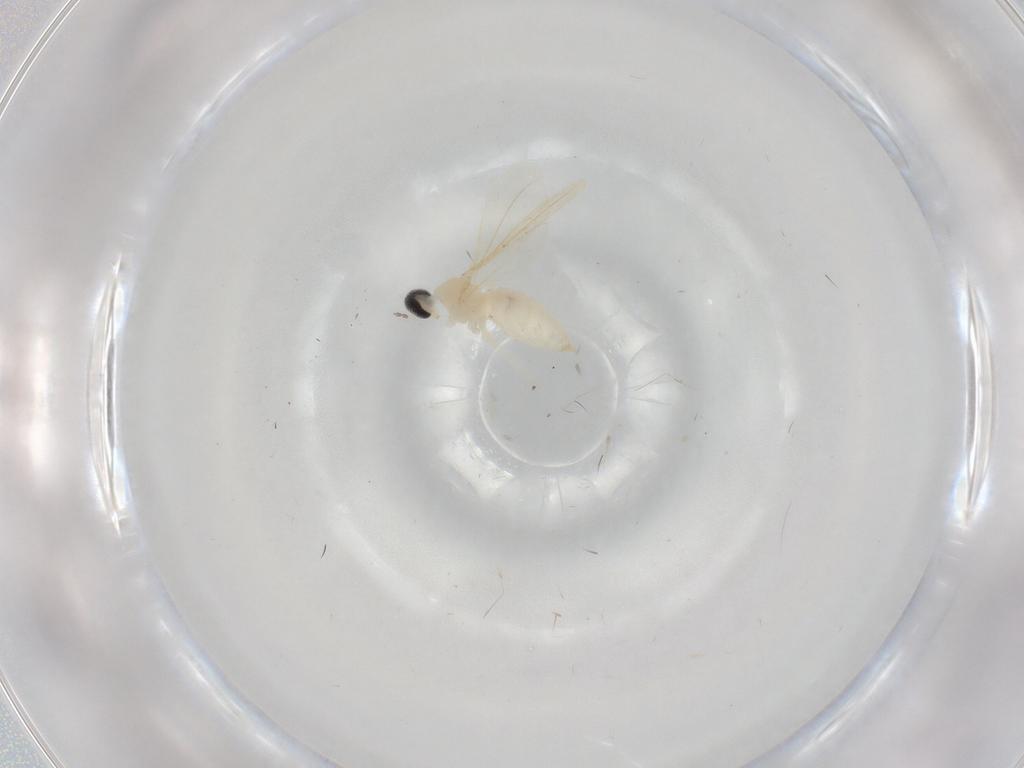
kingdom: Animalia
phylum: Arthropoda
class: Insecta
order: Diptera
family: Cecidomyiidae
